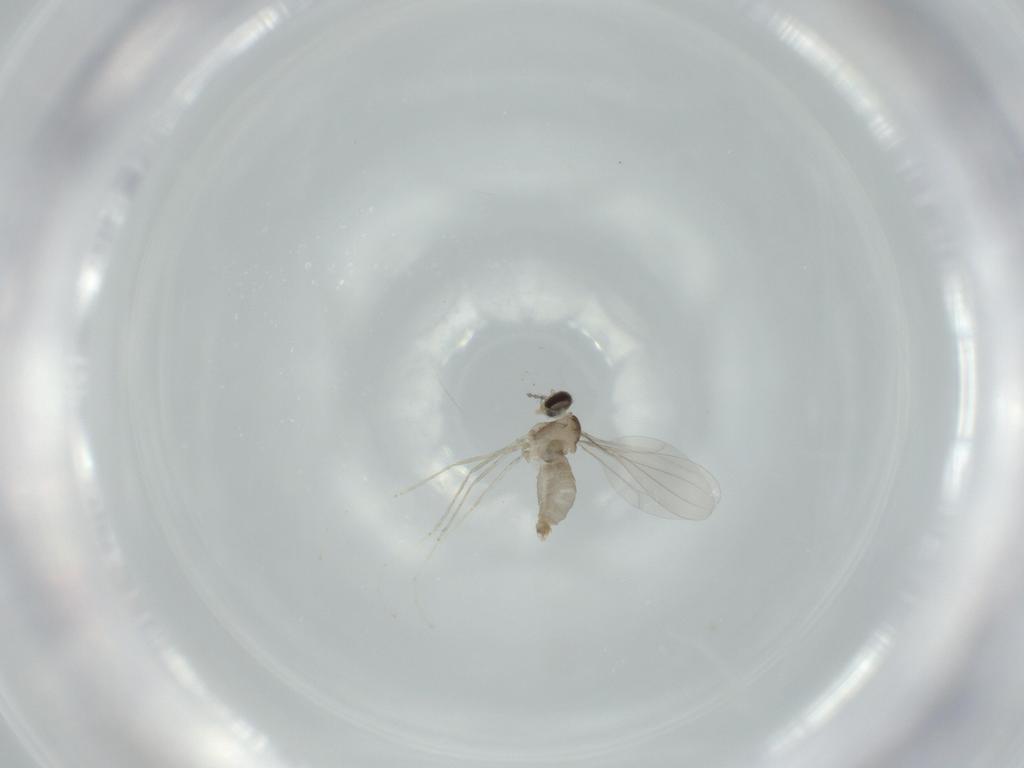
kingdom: Animalia
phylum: Arthropoda
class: Insecta
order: Diptera
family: Cecidomyiidae
